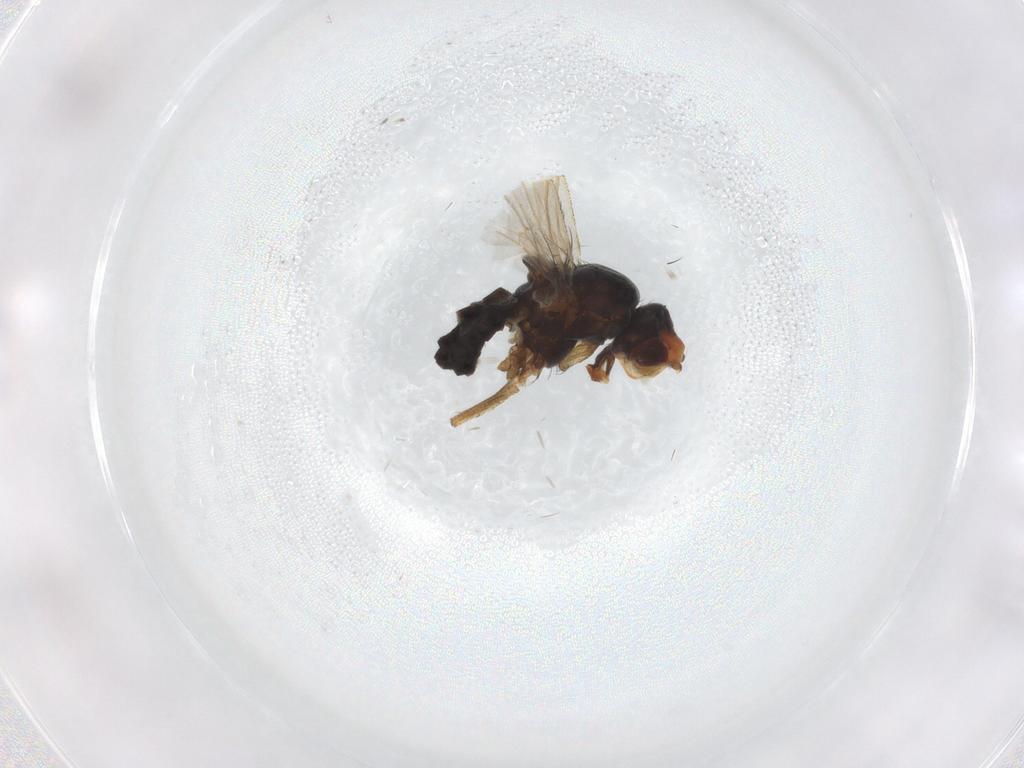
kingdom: Animalia
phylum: Arthropoda
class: Insecta
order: Diptera
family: Heleomyzidae
